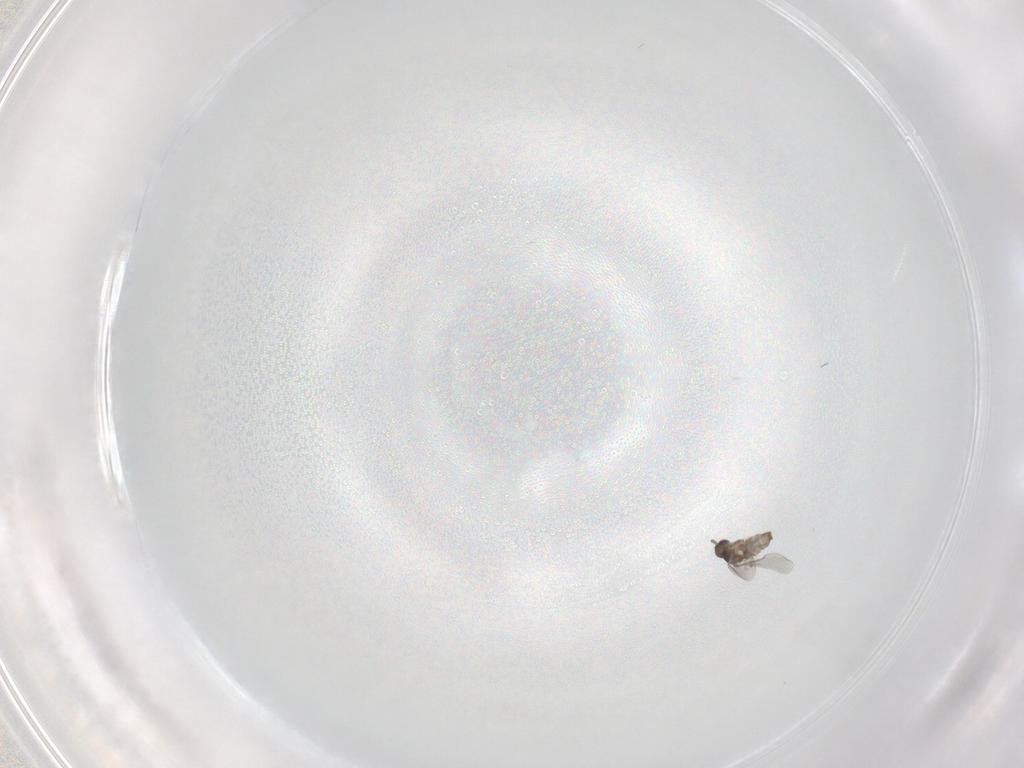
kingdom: Animalia
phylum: Arthropoda
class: Insecta
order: Diptera
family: Cecidomyiidae
